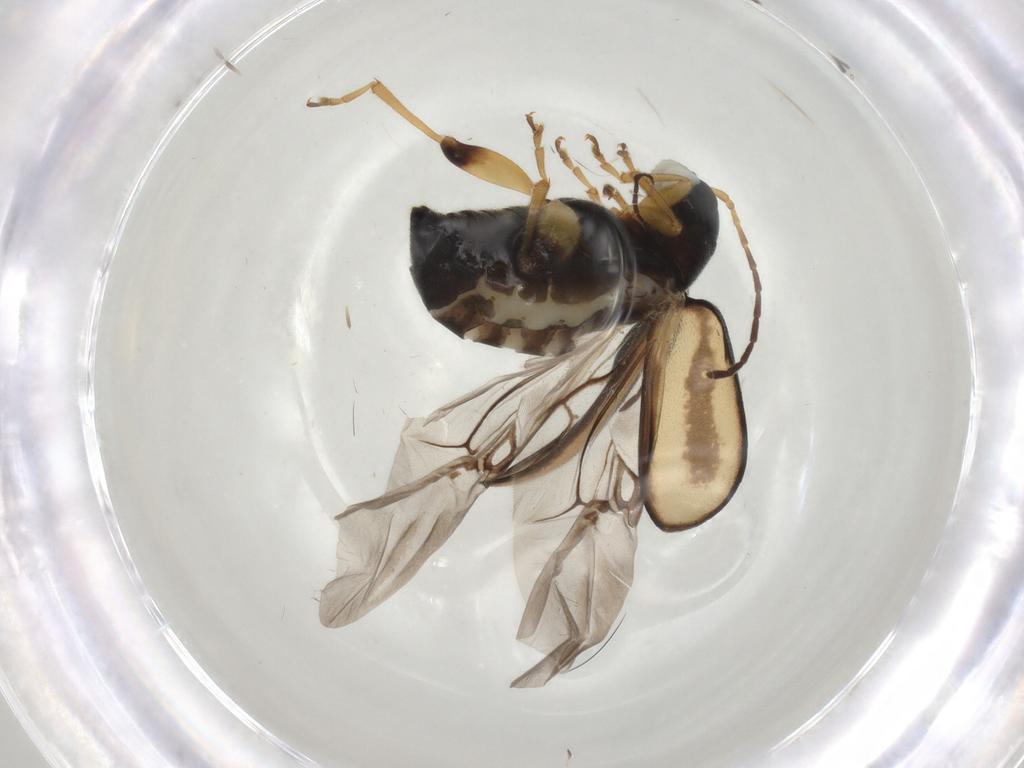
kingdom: Animalia
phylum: Arthropoda
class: Insecta
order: Coleoptera
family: Chrysomelidae
